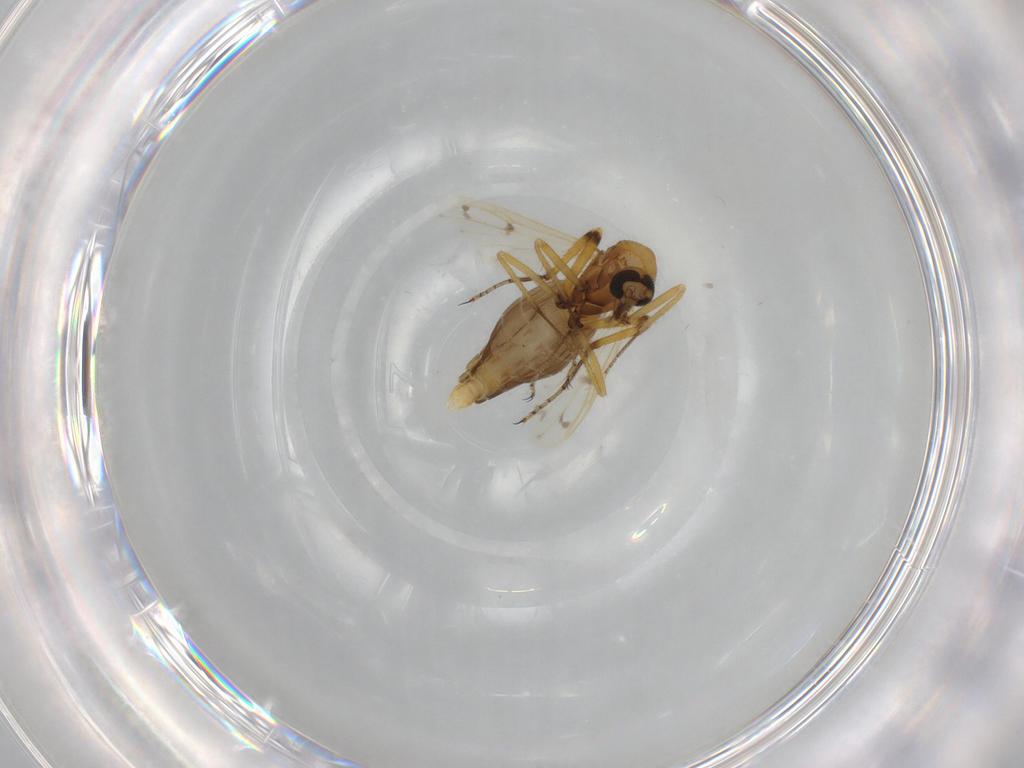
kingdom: Animalia
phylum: Arthropoda
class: Insecta
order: Diptera
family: Agromyzidae
